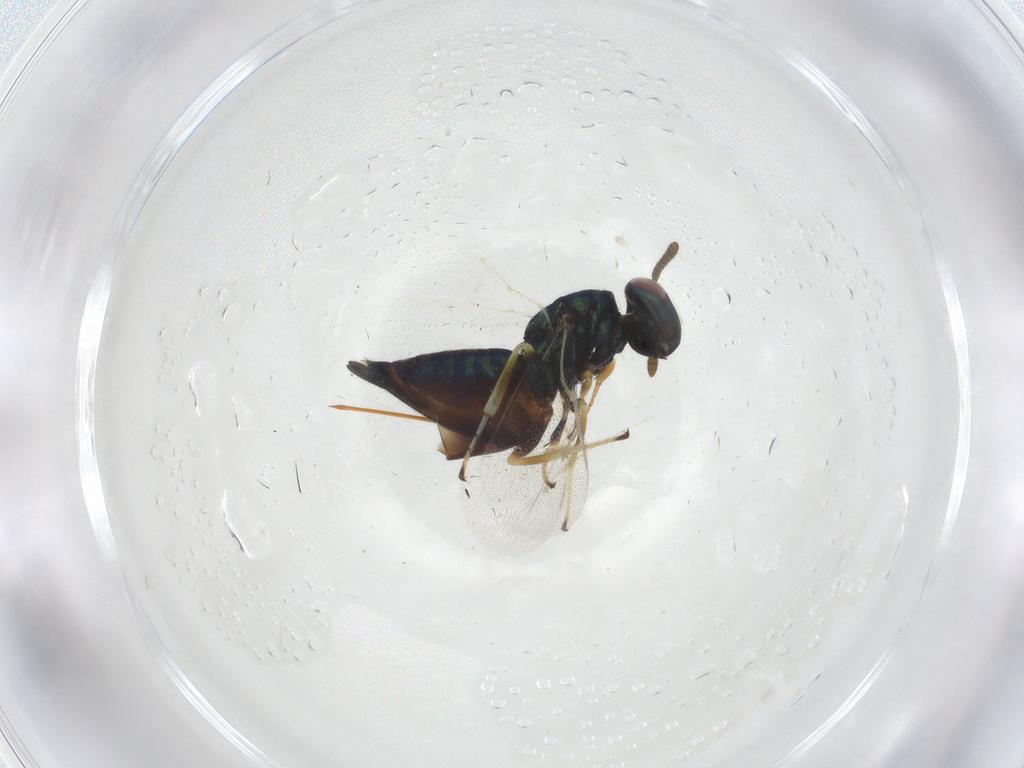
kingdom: Animalia
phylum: Arthropoda
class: Insecta
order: Hymenoptera
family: Pteromalidae
